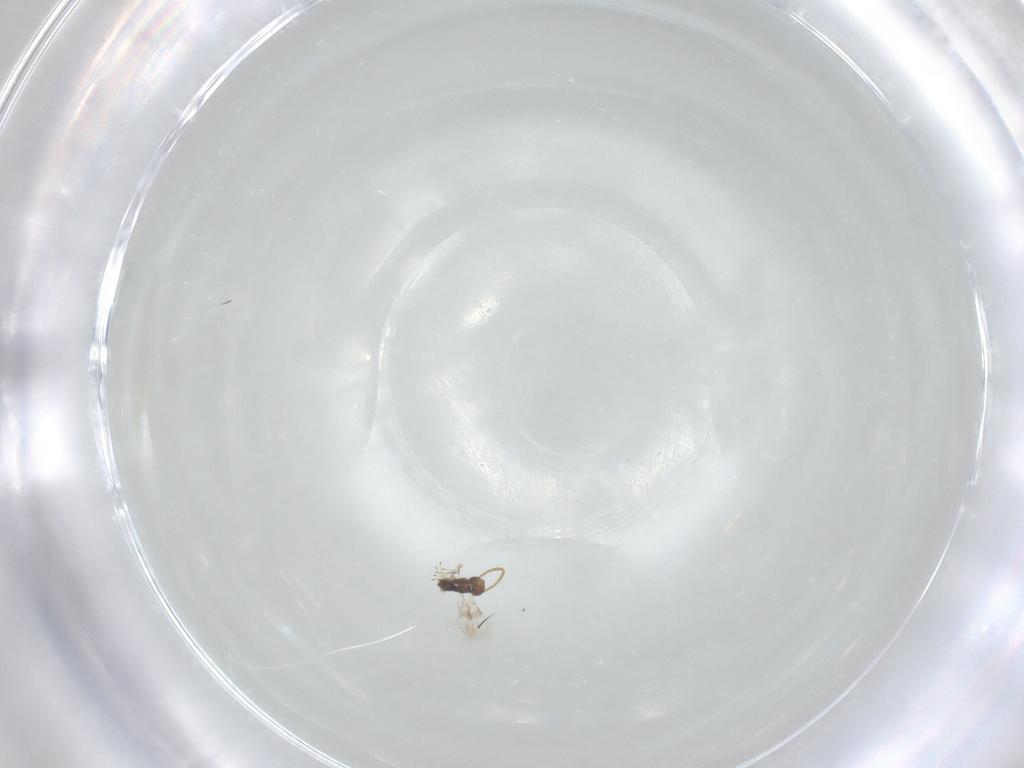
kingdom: Animalia
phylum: Arthropoda
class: Insecta
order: Hymenoptera
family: Azotidae
